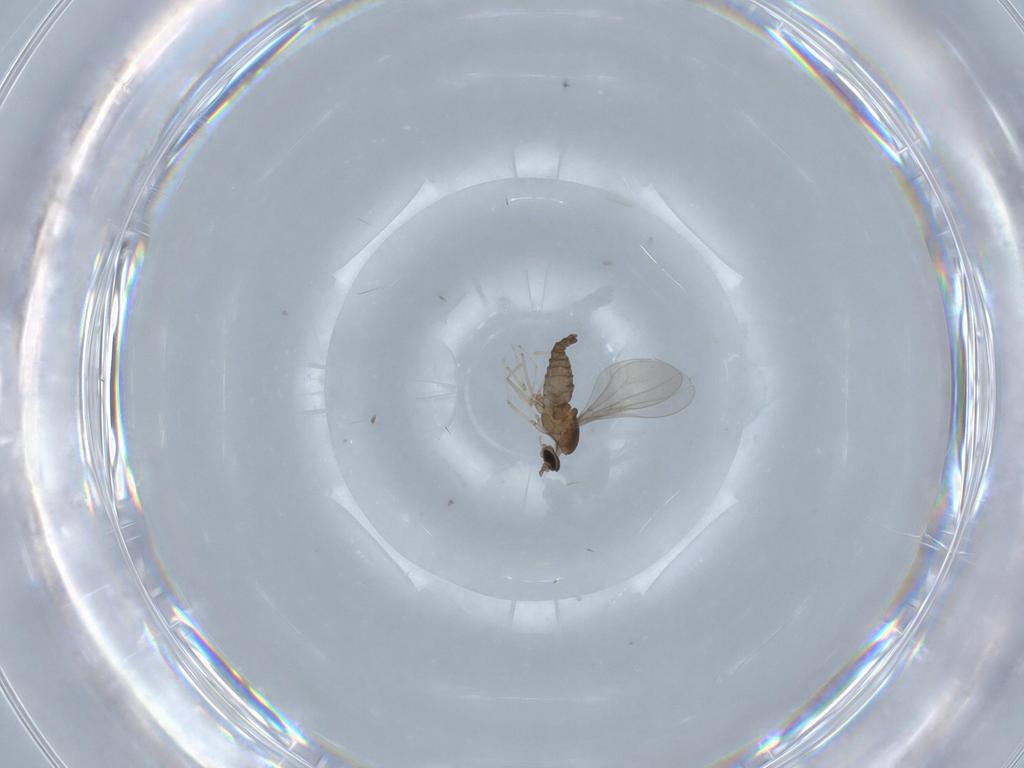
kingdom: Animalia
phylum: Arthropoda
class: Insecta
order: Diptera
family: Cecidomyiidae
